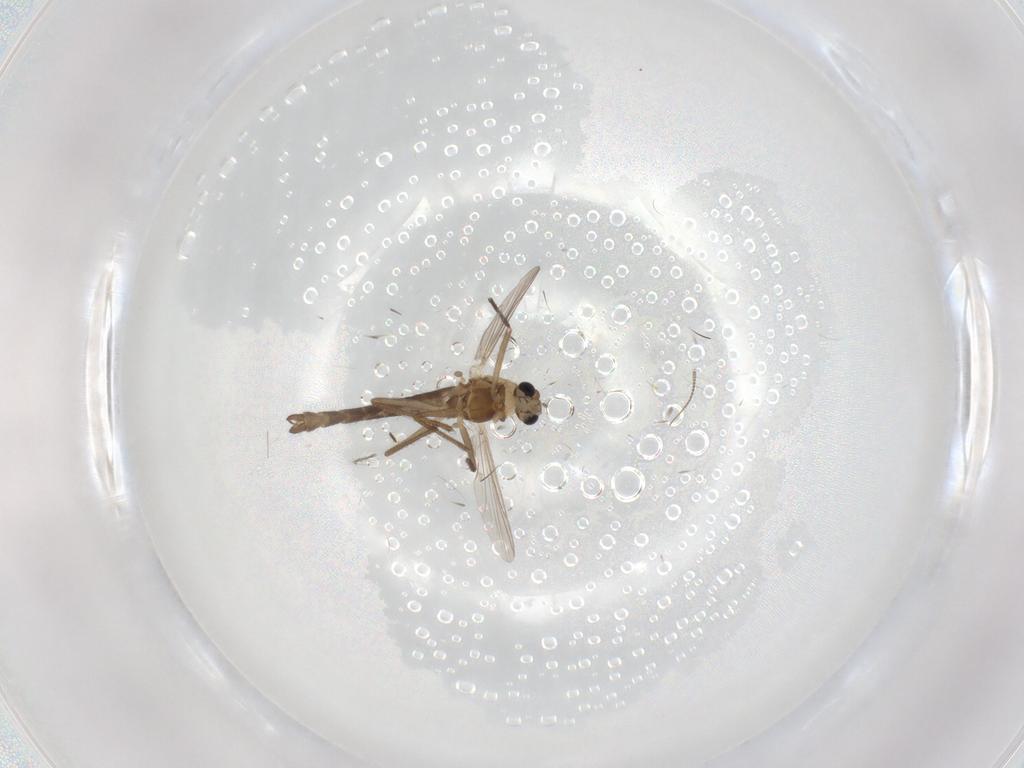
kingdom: Animalia
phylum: Arthropoda
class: Insecta
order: Diptera
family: Chironomidae
